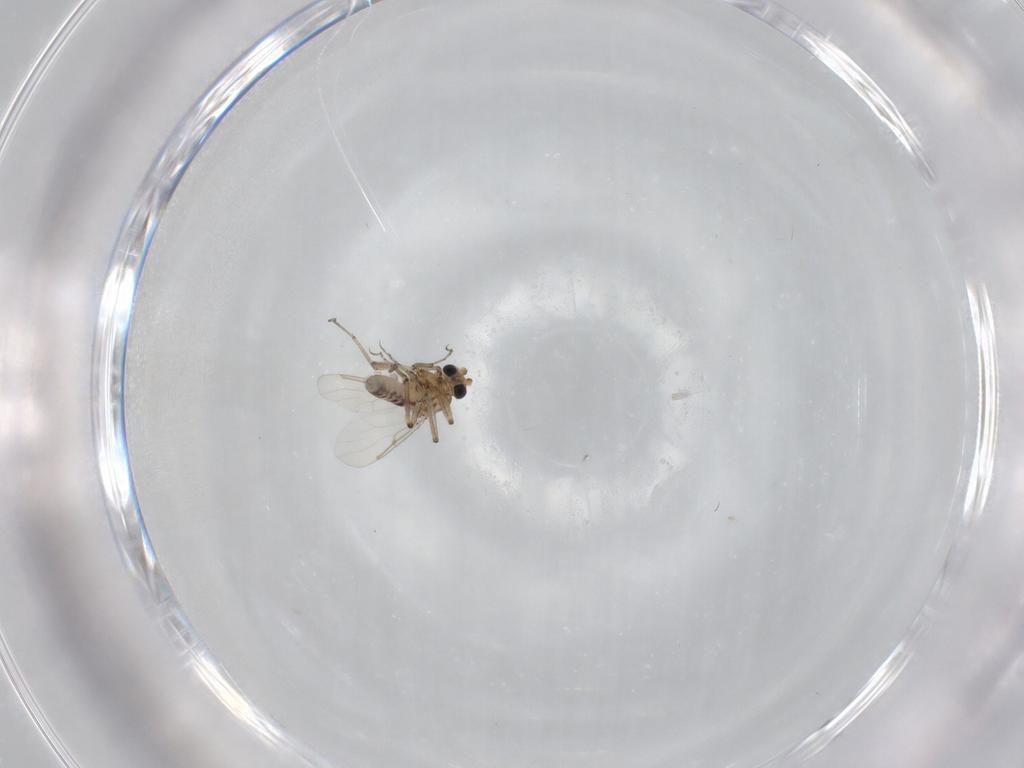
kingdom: Animalia
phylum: Arthropoda
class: Insecta
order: Diptera
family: Ceratopogonidae
